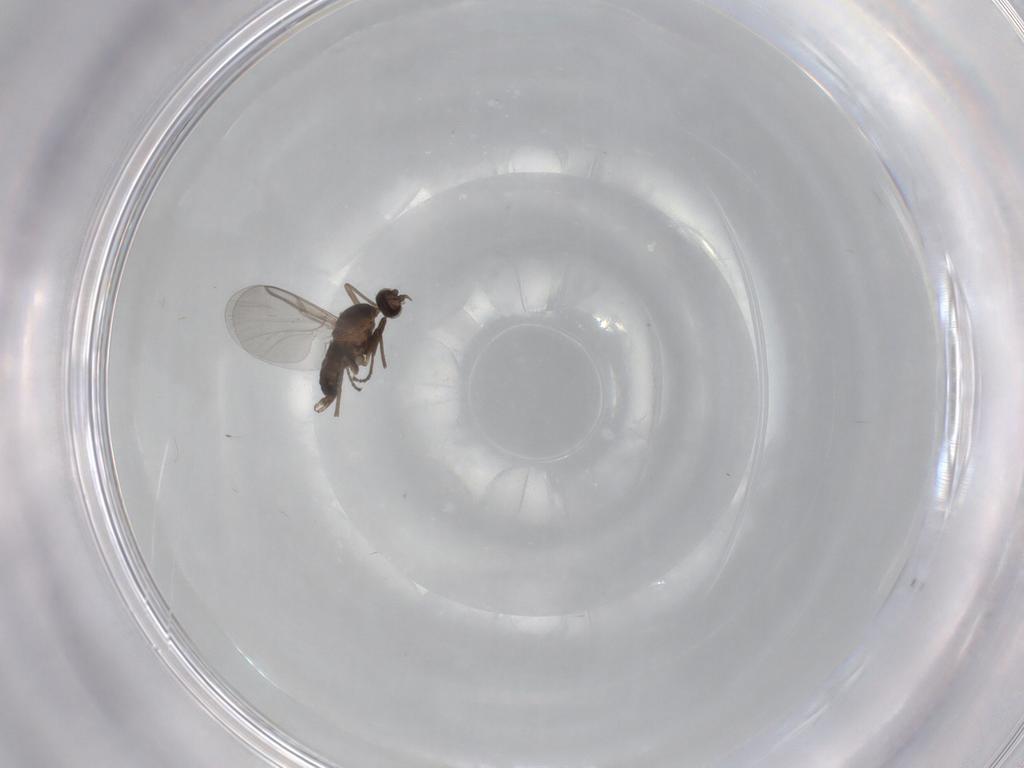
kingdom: Animalia
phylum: Arthropoda
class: Insecta
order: Diptera
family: Cecidomyiidae
